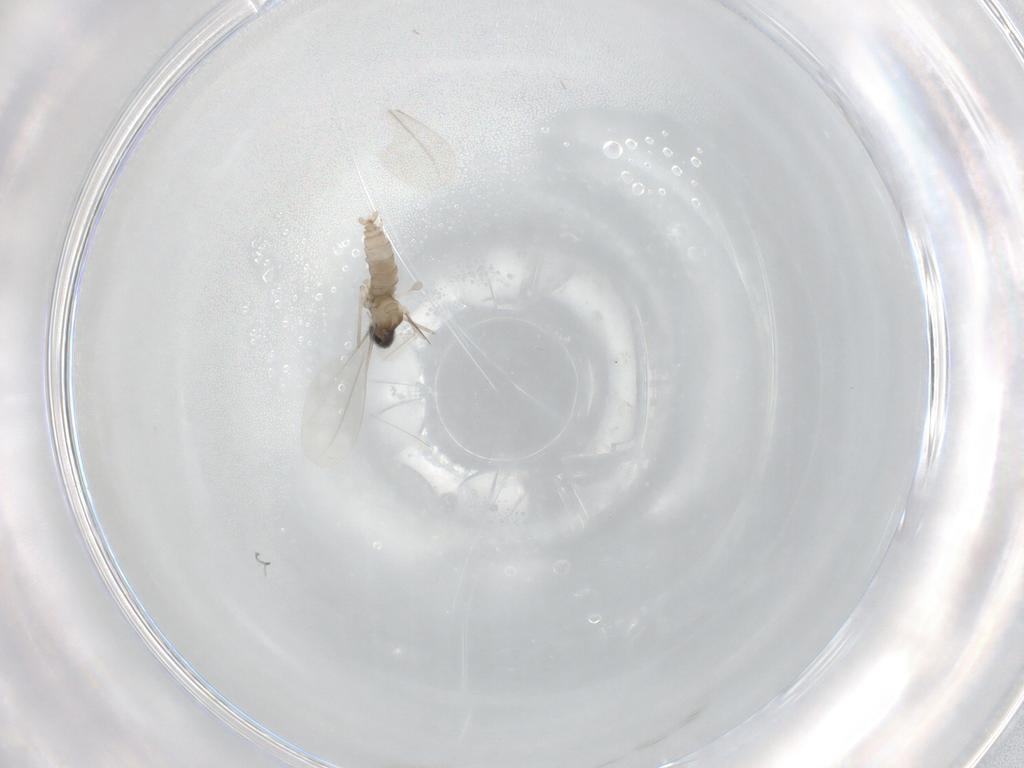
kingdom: Animalia
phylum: Arthropoda
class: Insecta
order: Diptera
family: Cecidomyiidae
